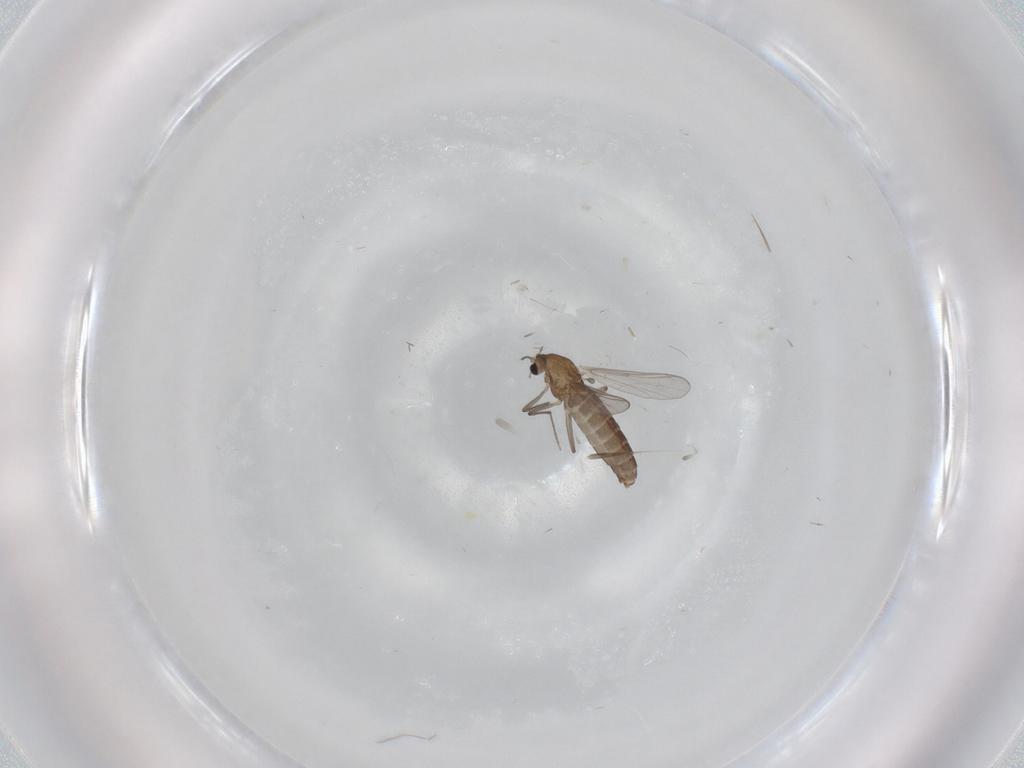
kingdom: Animalia
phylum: Arthropoda
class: Insecta
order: Diptera
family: Chironomidae
